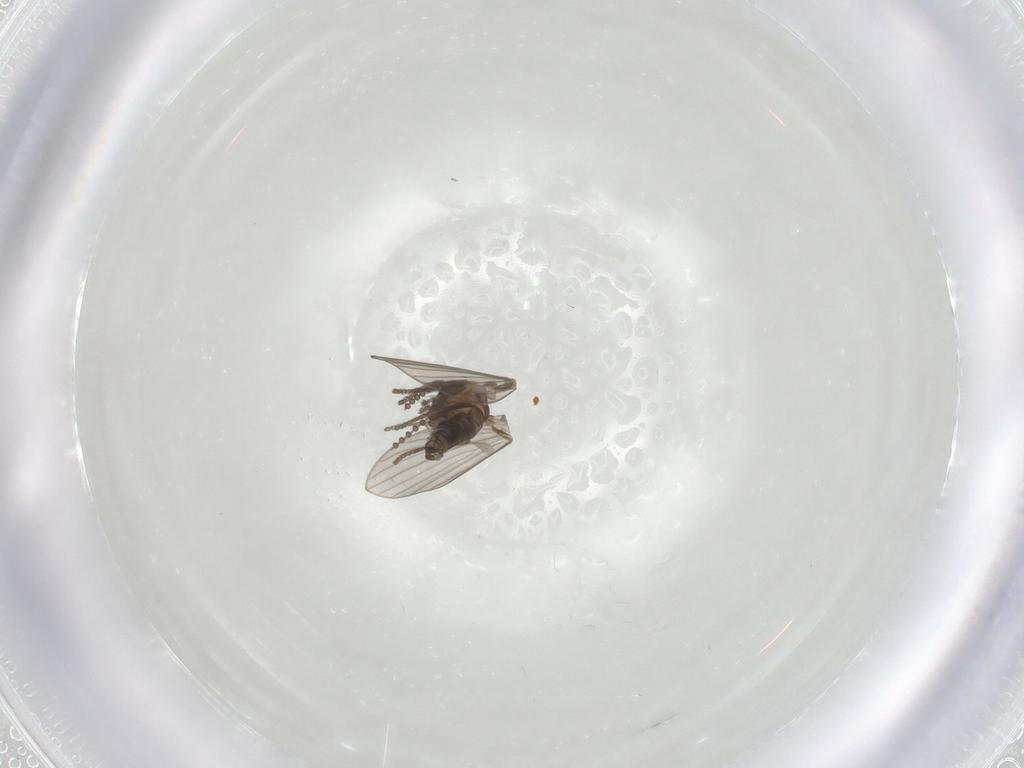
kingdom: Animalia
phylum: Arthropoda
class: Insecta
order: Diptera
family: Psychodidae
